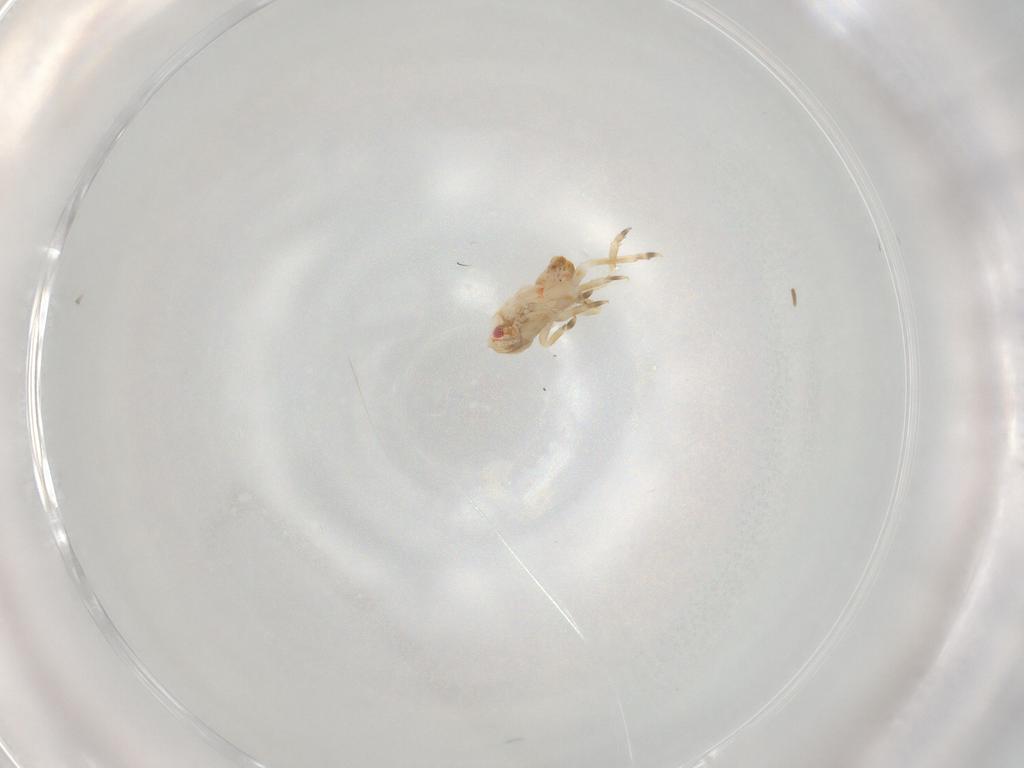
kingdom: Animalia
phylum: Arthropoda
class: Insecta
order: Hemiptera
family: Flatidae
